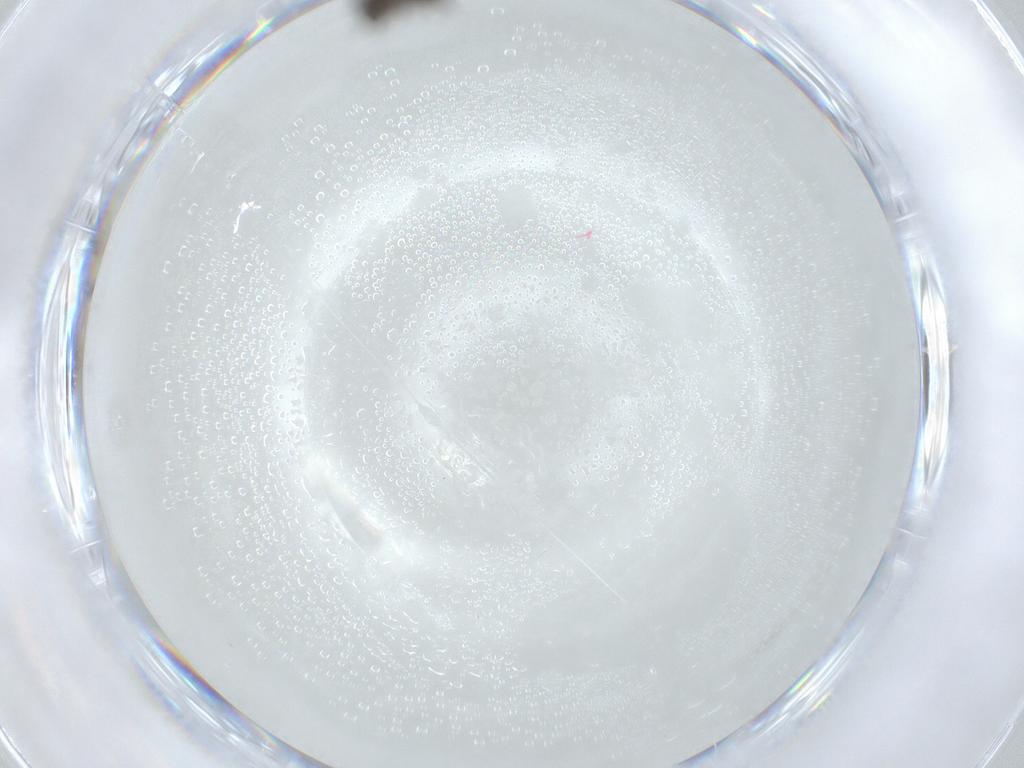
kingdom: Animalia
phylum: Arthropoda
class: Insecta
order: Diptera
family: Chironomidae
